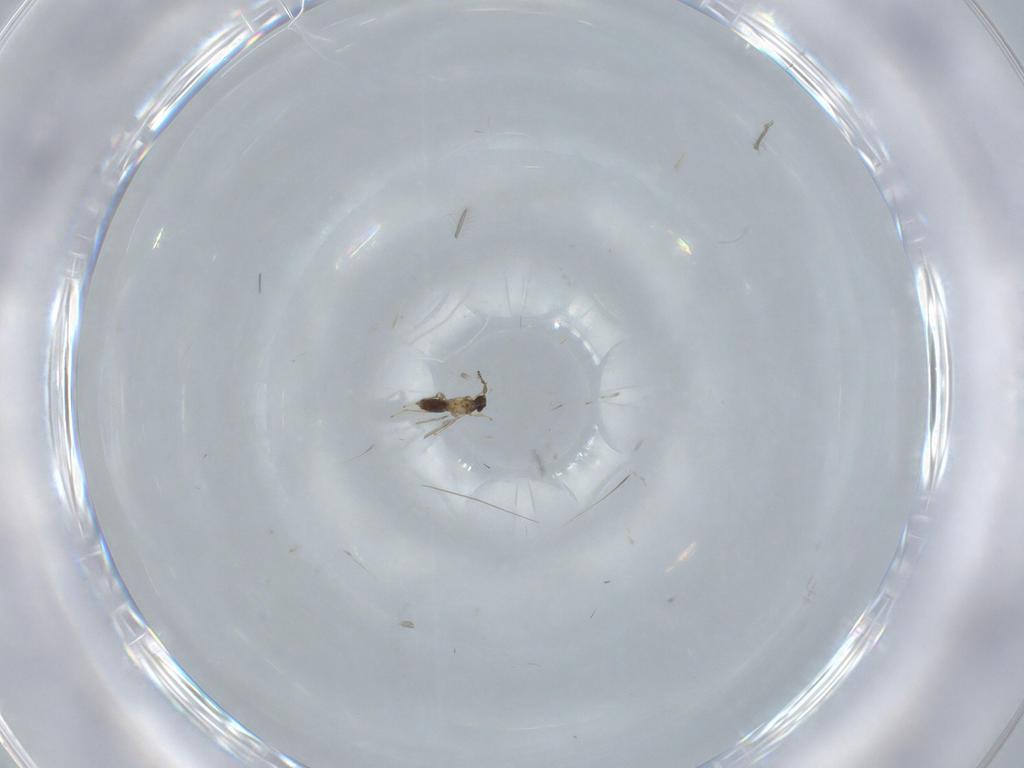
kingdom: Animalia
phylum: Arthropoda
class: Insecta
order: Hymenoptera
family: Mymaridae
